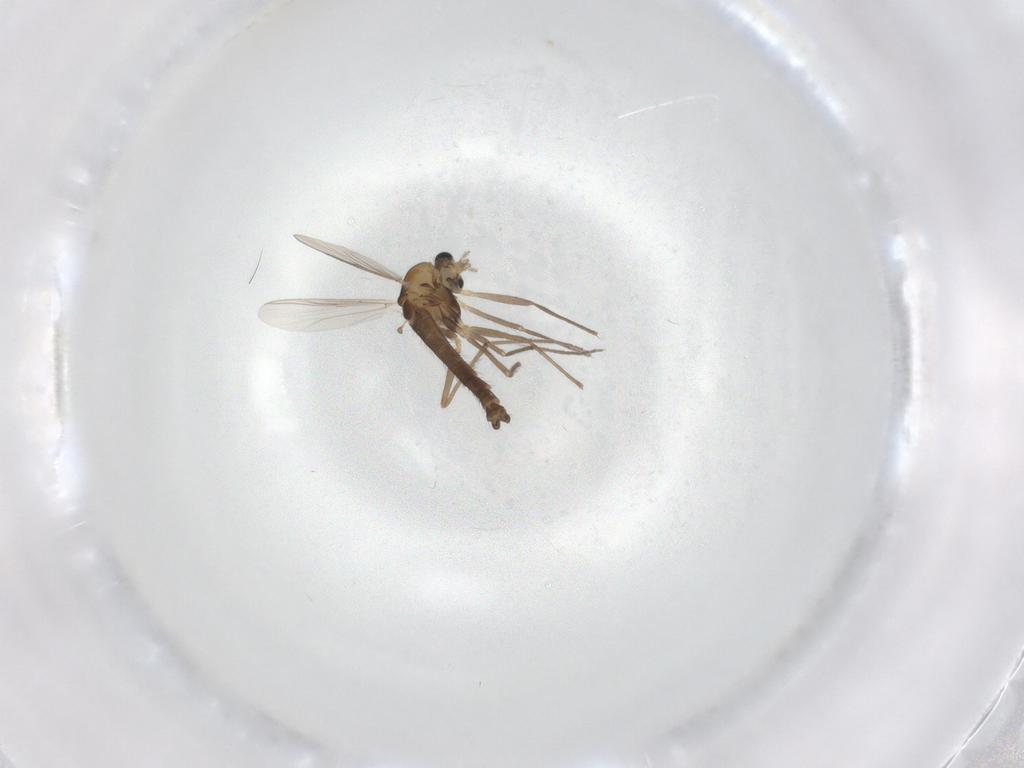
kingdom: Animalia
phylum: Arthropoda
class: Insecta
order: Diptera
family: Chironomidae
